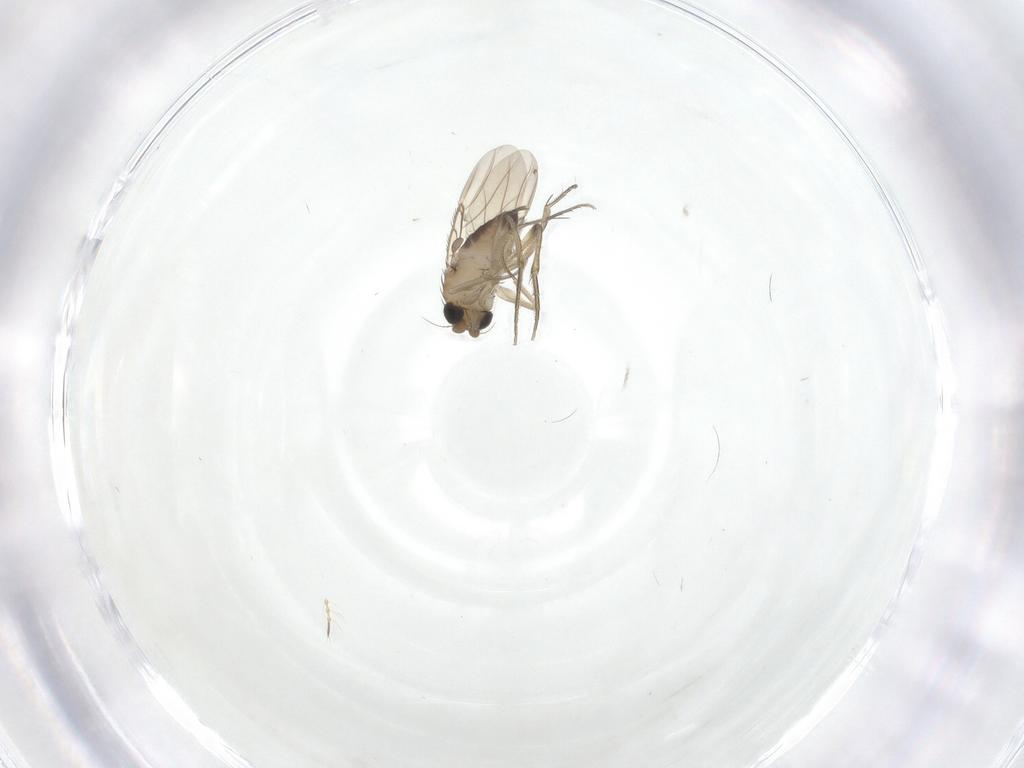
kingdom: Animalia
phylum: Arthropoda
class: Insecta
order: Diptera
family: Phoridae
